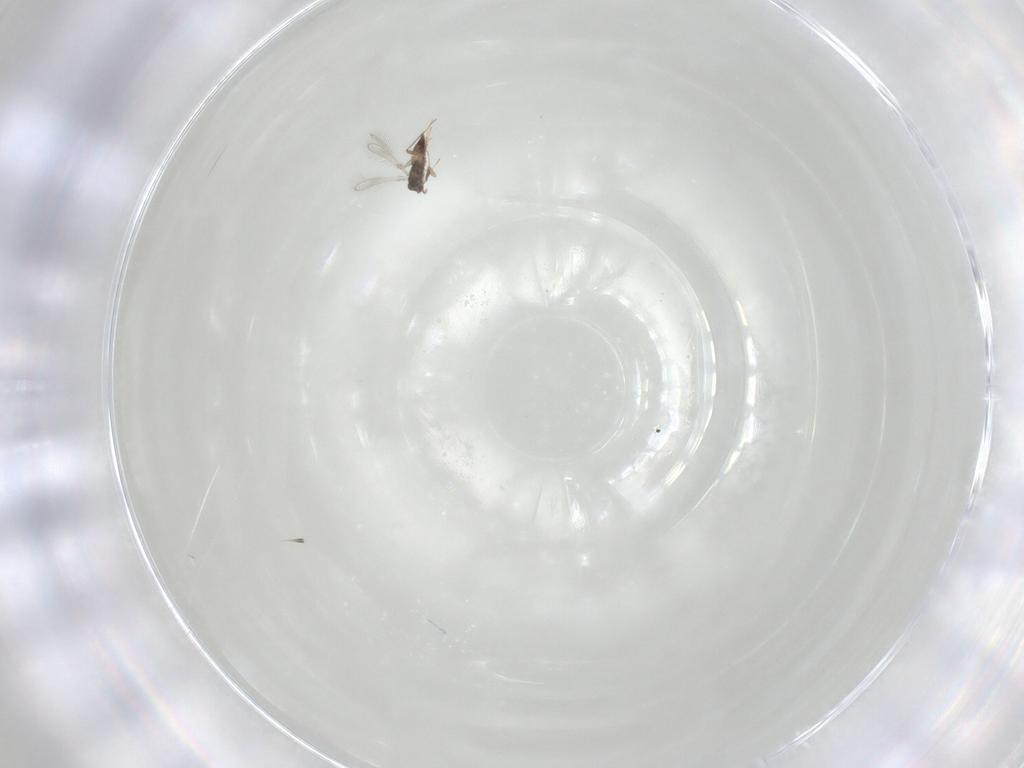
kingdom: Animalia
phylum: Arthropoda
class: Insecta
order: Hymenoptera
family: Mymaridae
